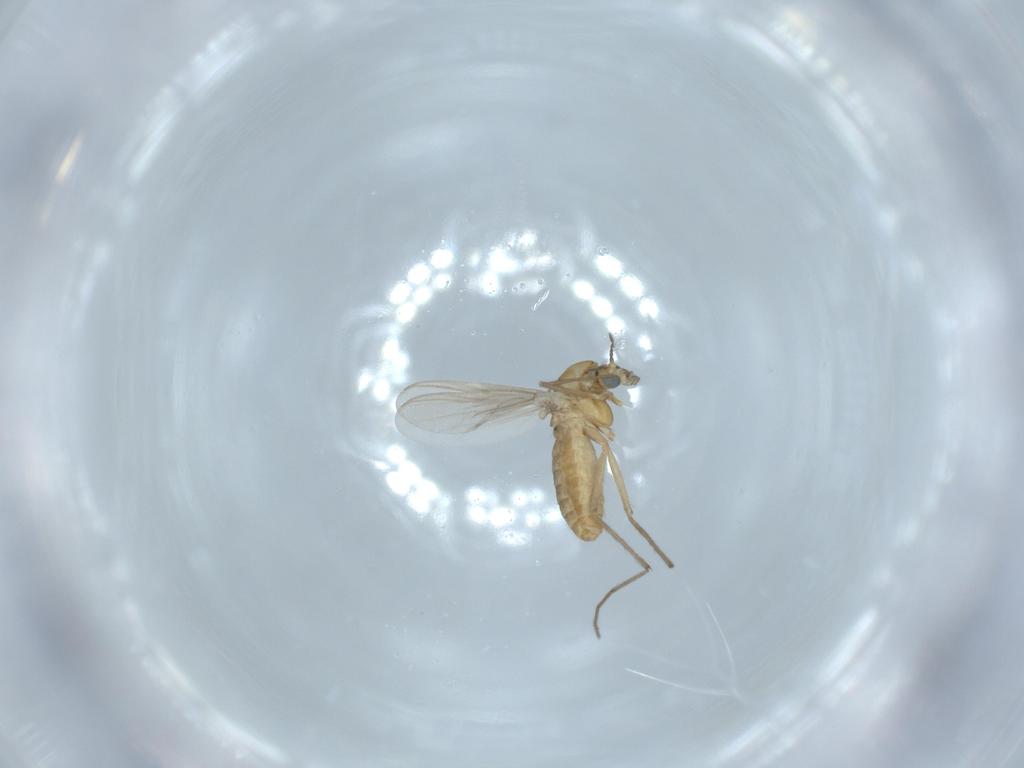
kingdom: Animalia
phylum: Arthropoda
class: Insecta
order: Diptera
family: Chironomidae
